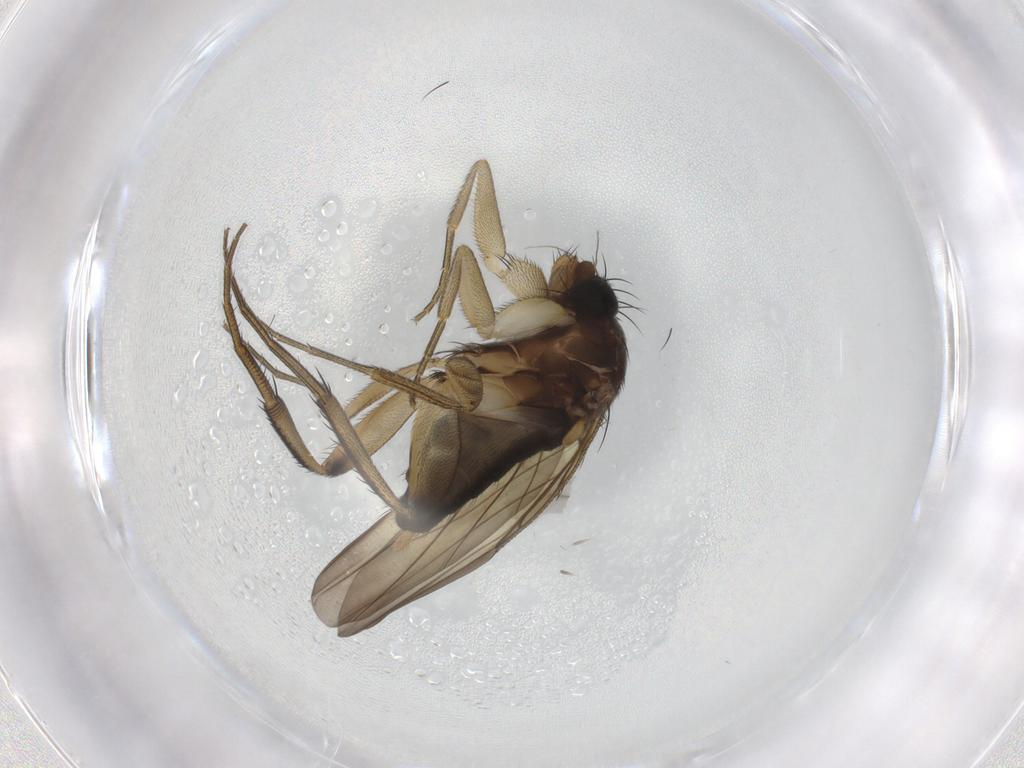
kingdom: Animalia
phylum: Arthropoda
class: Insecta
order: Diptera
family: Phoridae
